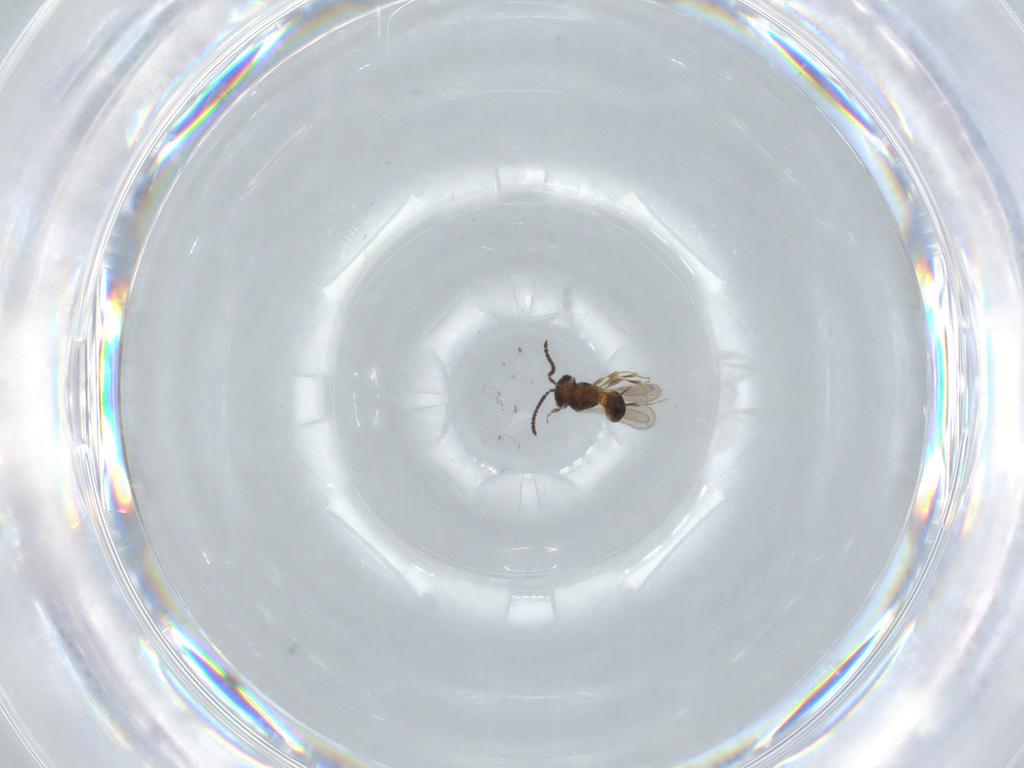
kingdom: Animalia
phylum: Arthropoda
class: Insecta
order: Hymenoptera
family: Scelionidae
